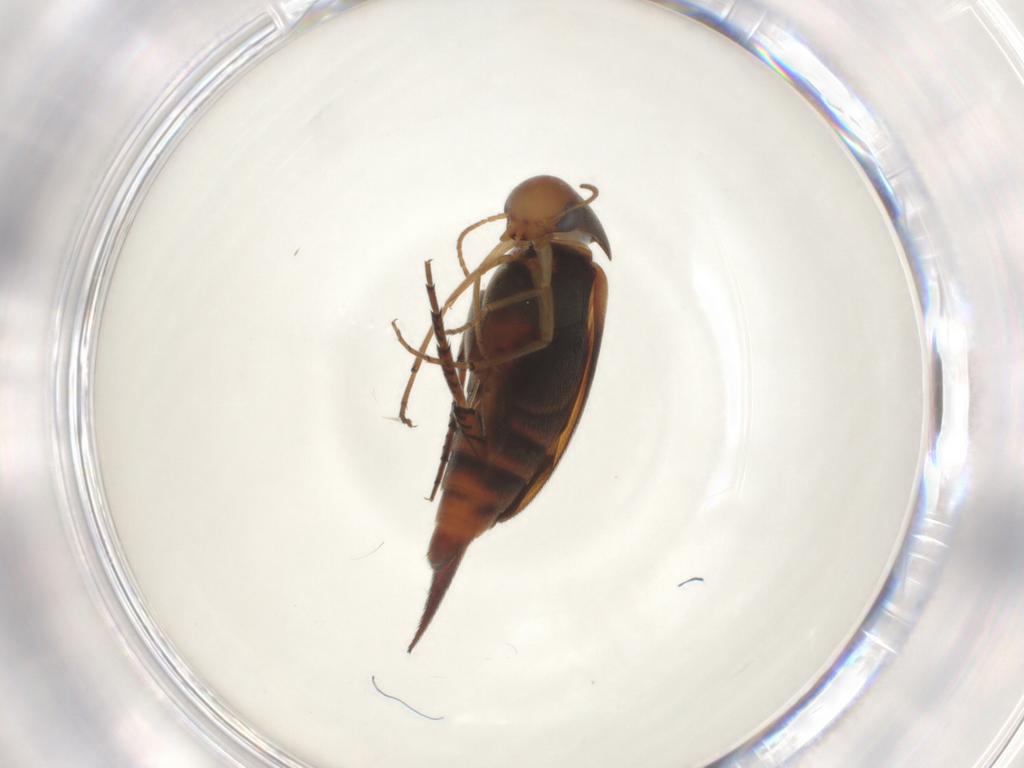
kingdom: Animalia
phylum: Arthropoda
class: Insecta
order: Coleoptera
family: Mordellidae
